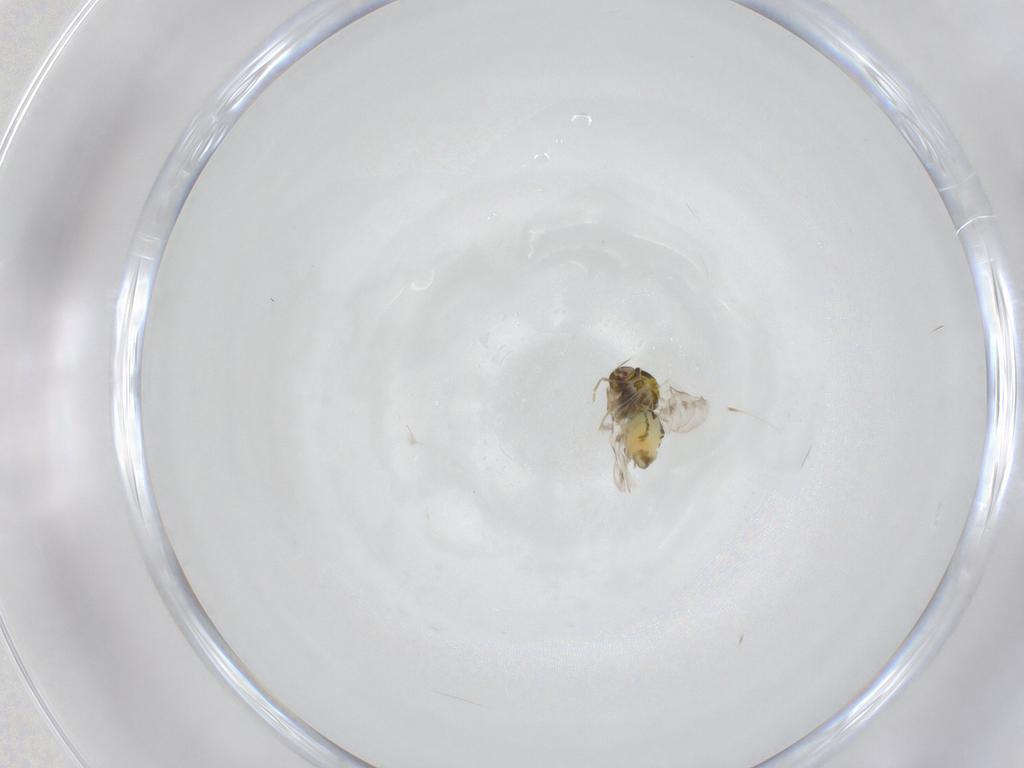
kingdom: Animalia
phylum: Arthropoda
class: Insecta
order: Hemiptera
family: Aleyrodidae
